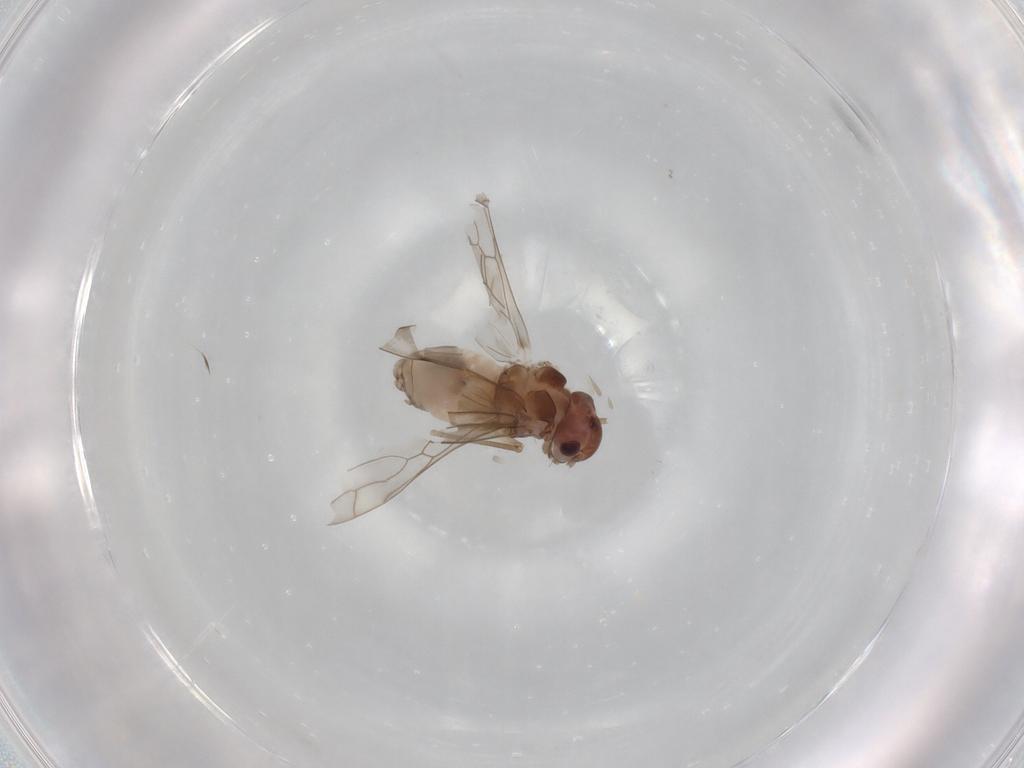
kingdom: Animalia
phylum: Arthropoda
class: Insecta
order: Psocodea
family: Peripsocidae
